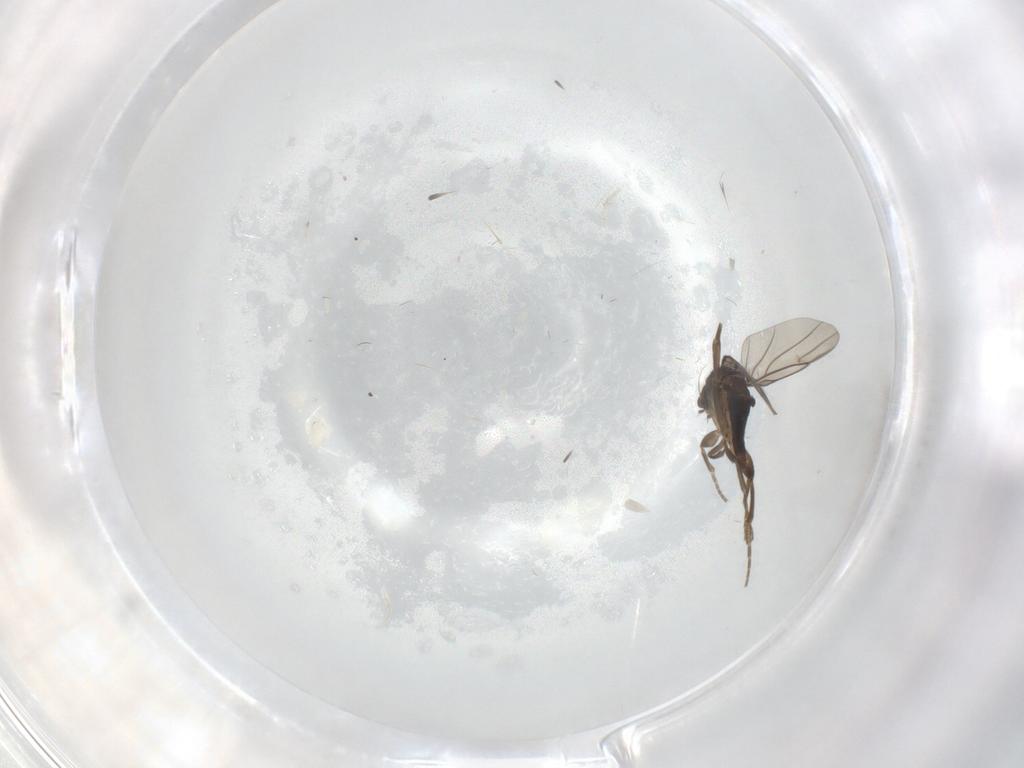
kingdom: Animalia
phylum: Arthropoda
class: Insecta
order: Diptera
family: Phoridae
